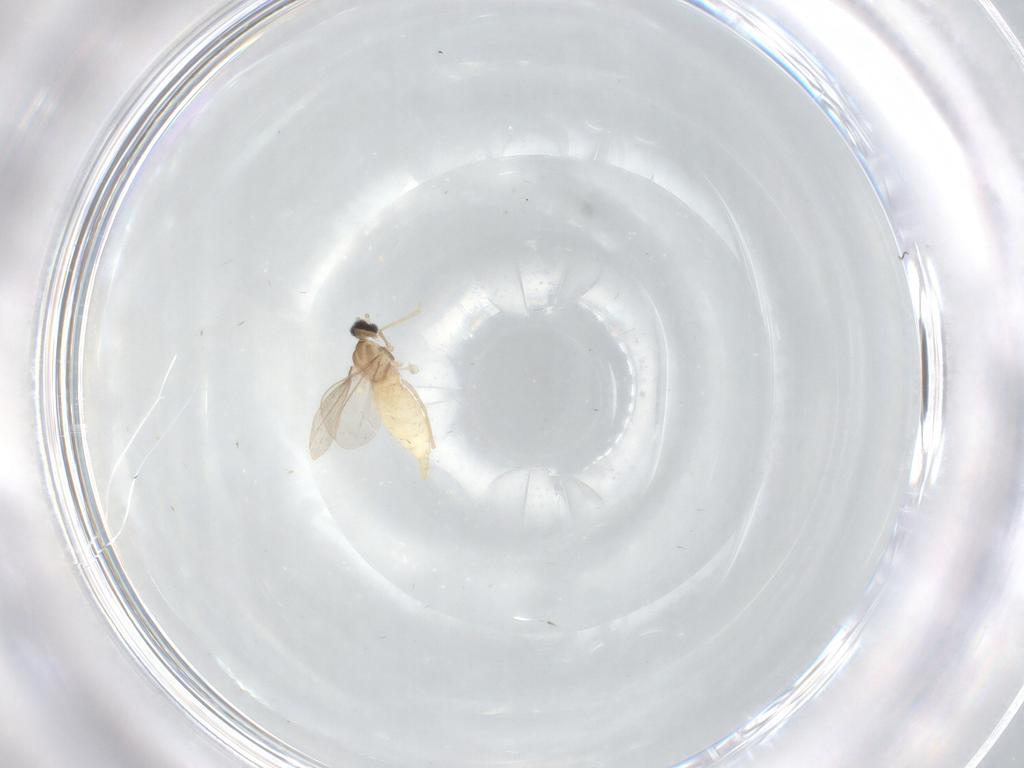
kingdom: Animalia
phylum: Arthropoda
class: Insecta
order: Diptera
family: Cecidomyiidae
